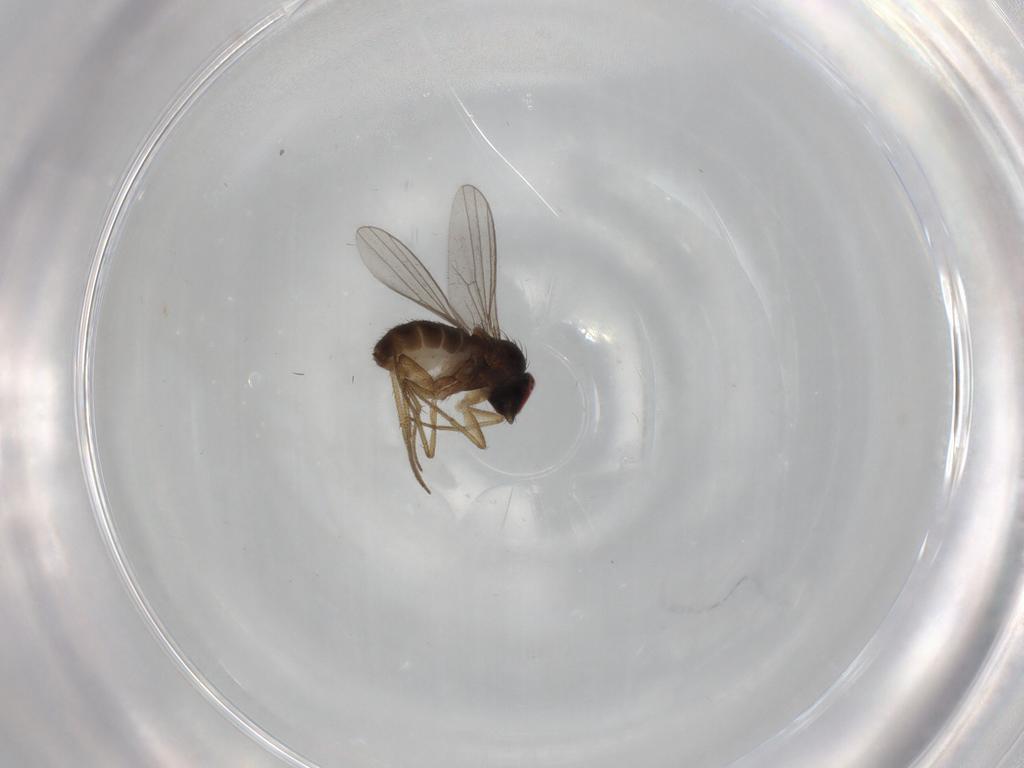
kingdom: Animalia
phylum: Arthropoda
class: Insecta
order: Diptera
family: Dolichopodidae
